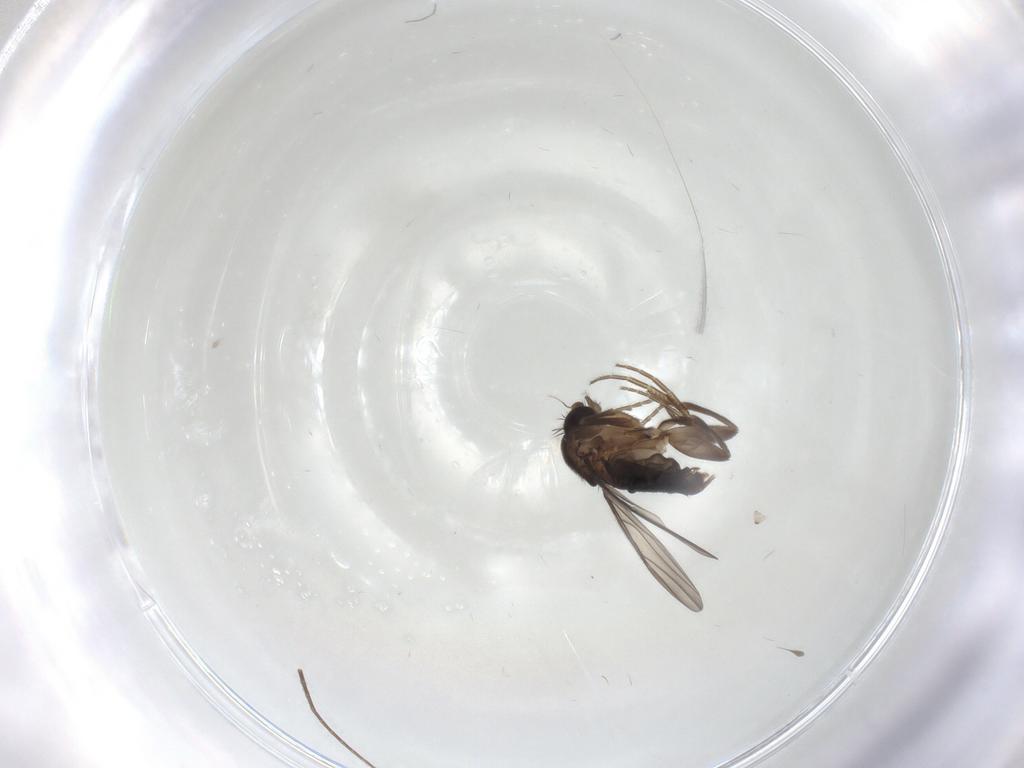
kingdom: Animalia
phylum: Arthropoda
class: Insecta
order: Diptera
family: Phoridae
